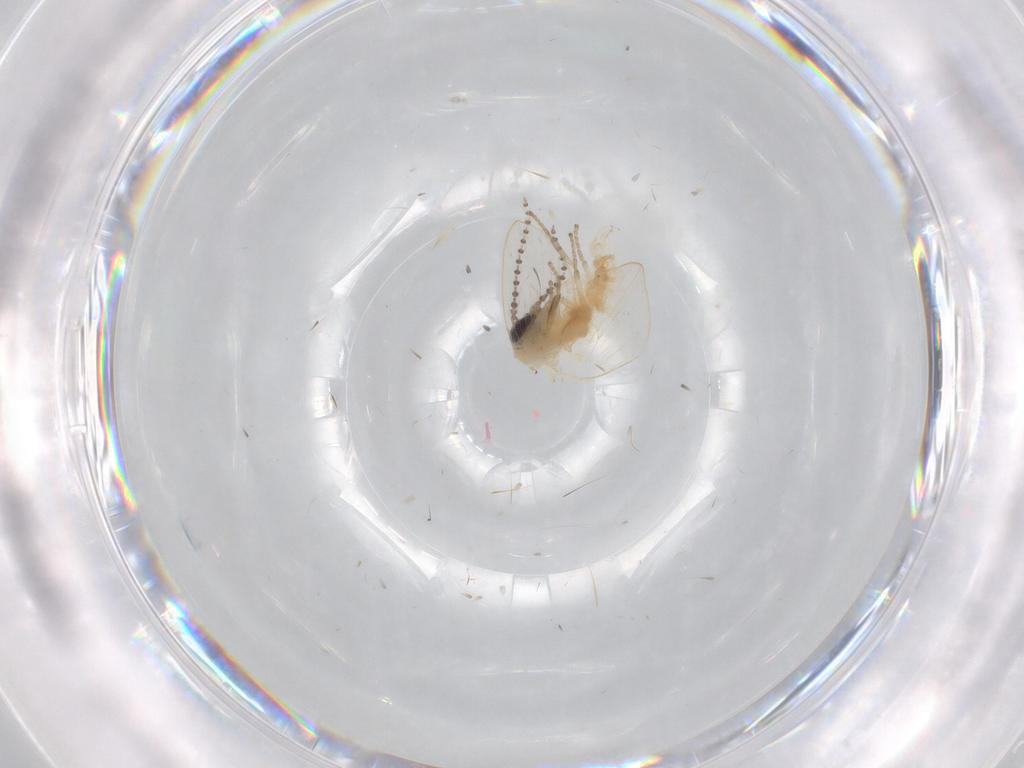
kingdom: Animalia
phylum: Arthropoda
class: Insecta
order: Diptera
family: Psychodidae
